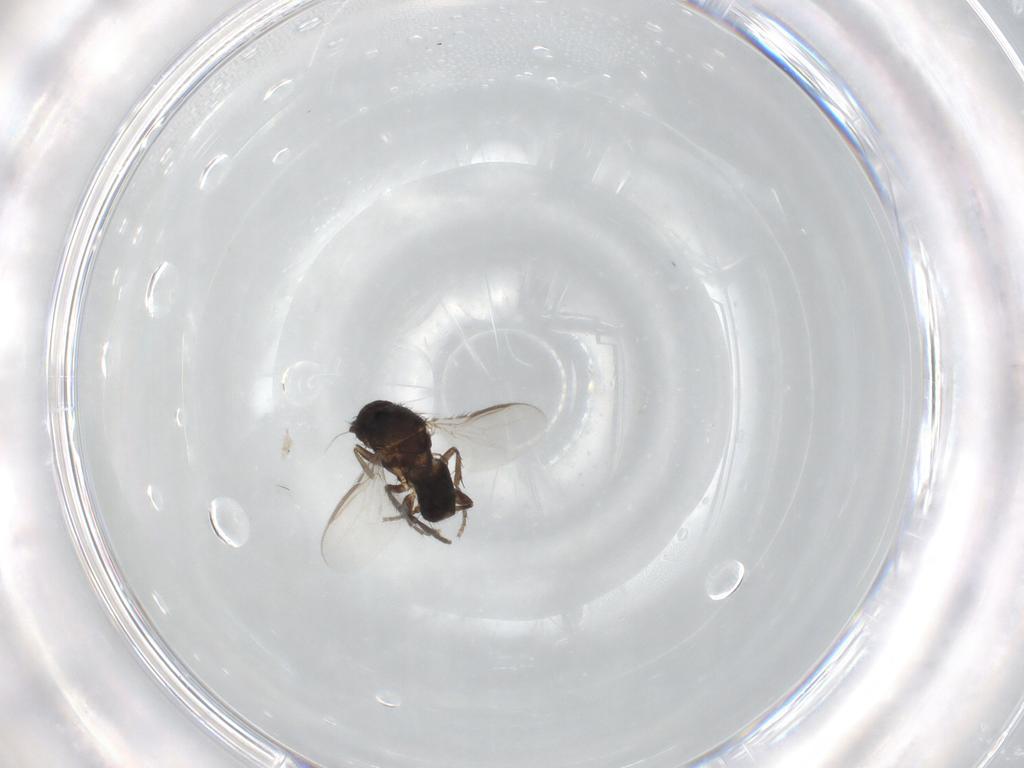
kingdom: Animalia
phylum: Arthropoda
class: Insecta
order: Diptera
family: Sphaeroceridae
